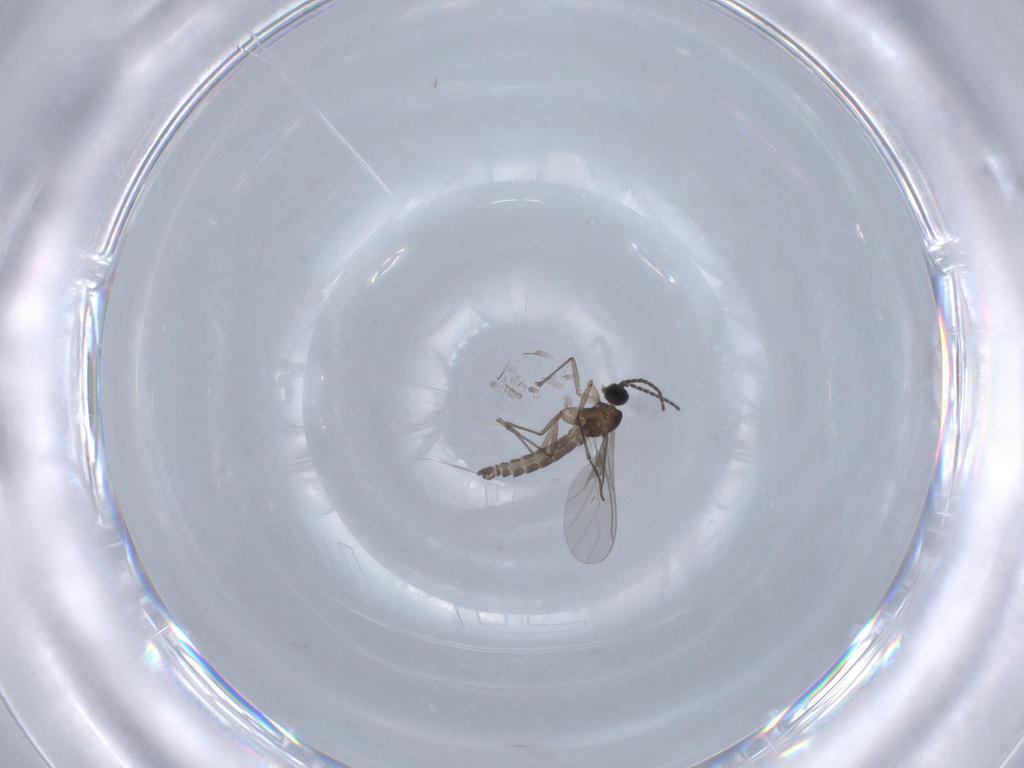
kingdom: Animalia
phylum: Arthropoda
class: Insecta
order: Diptera
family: Sciaridae
